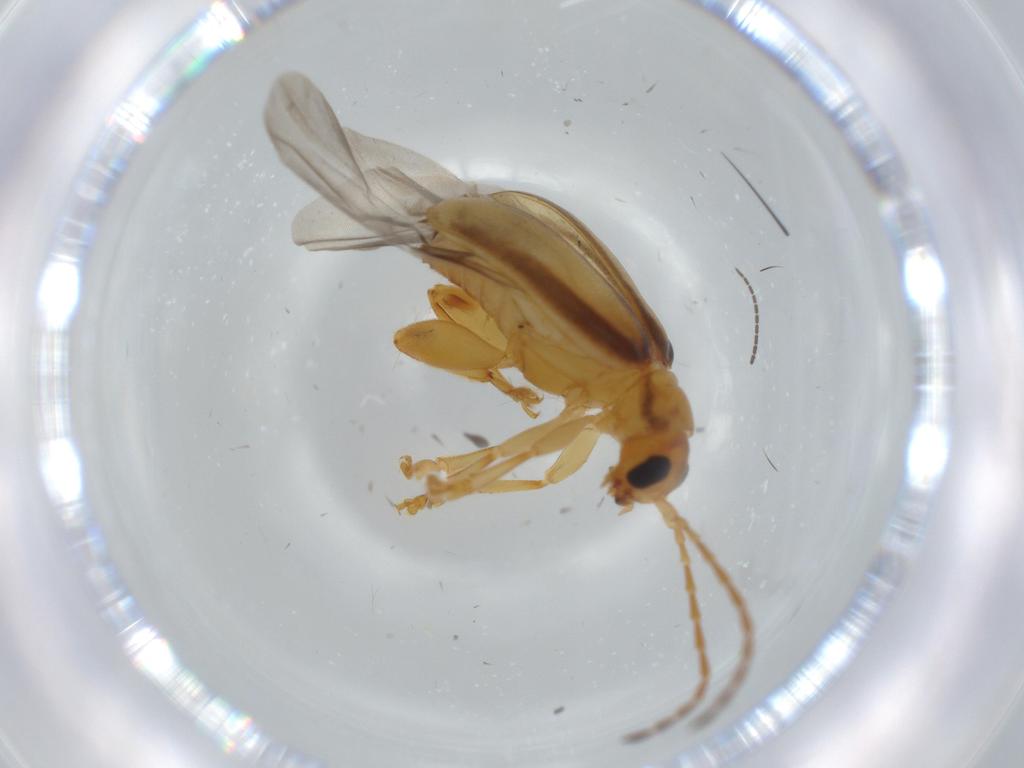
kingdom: Animalia
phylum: Arthropoda
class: Insecta
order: Coleoptera
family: Chrysomelidae
